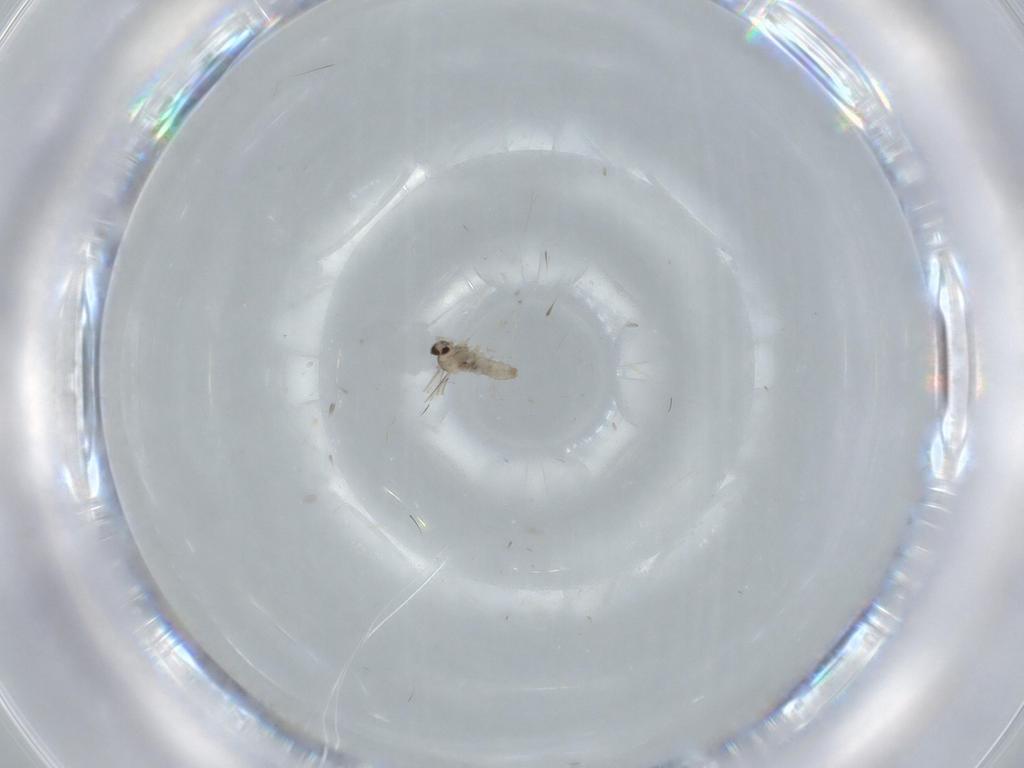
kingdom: Animalia
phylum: Arthropoda
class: Insecta
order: Diptera
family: Cecidomyiidae
